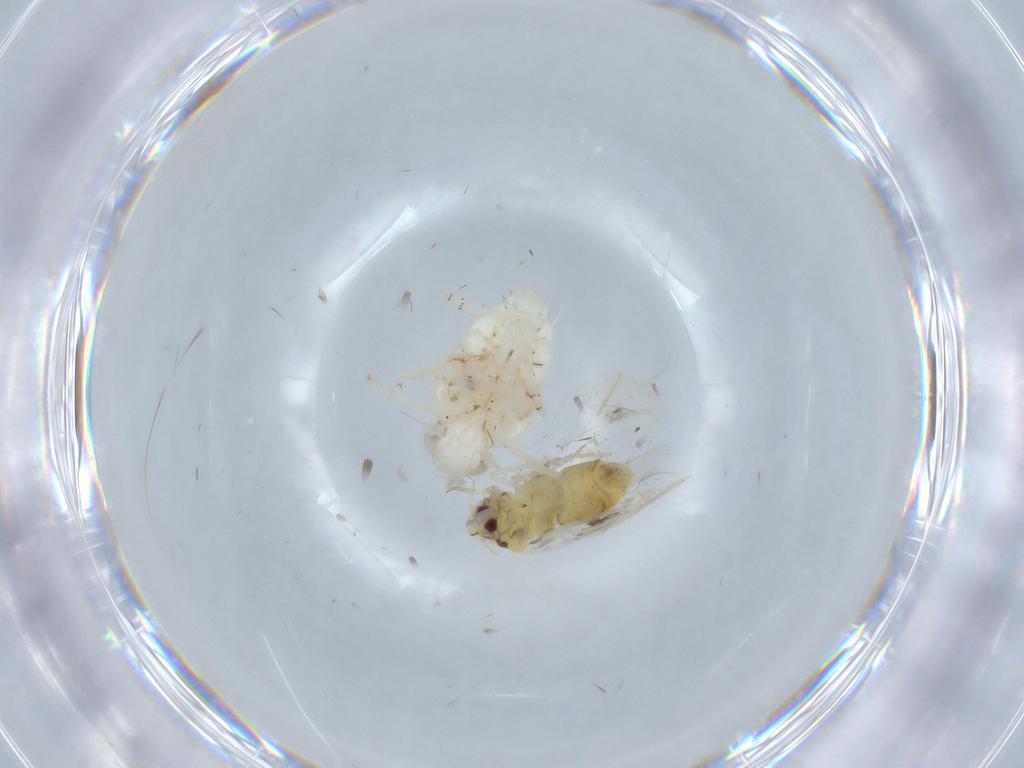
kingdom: Animalia
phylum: Arthropoda
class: Insecta
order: Hemiptera
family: Nogodinidae
